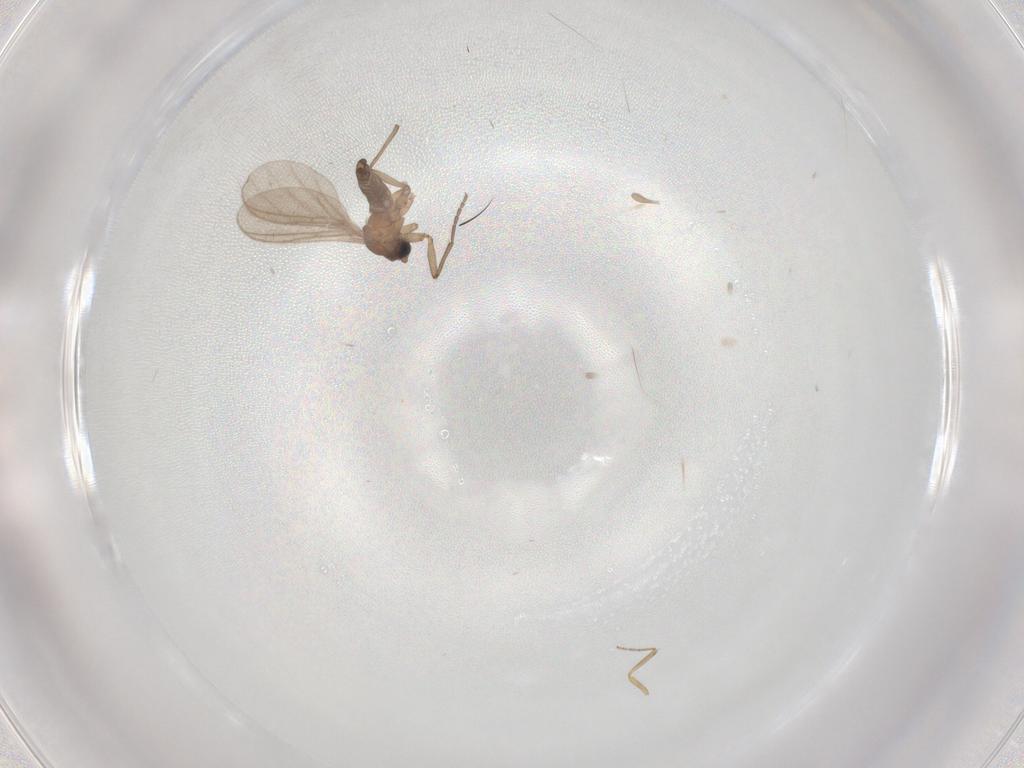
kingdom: Animalia
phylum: Arthropoda
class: Insecta
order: Diptera
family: Sciaridae
